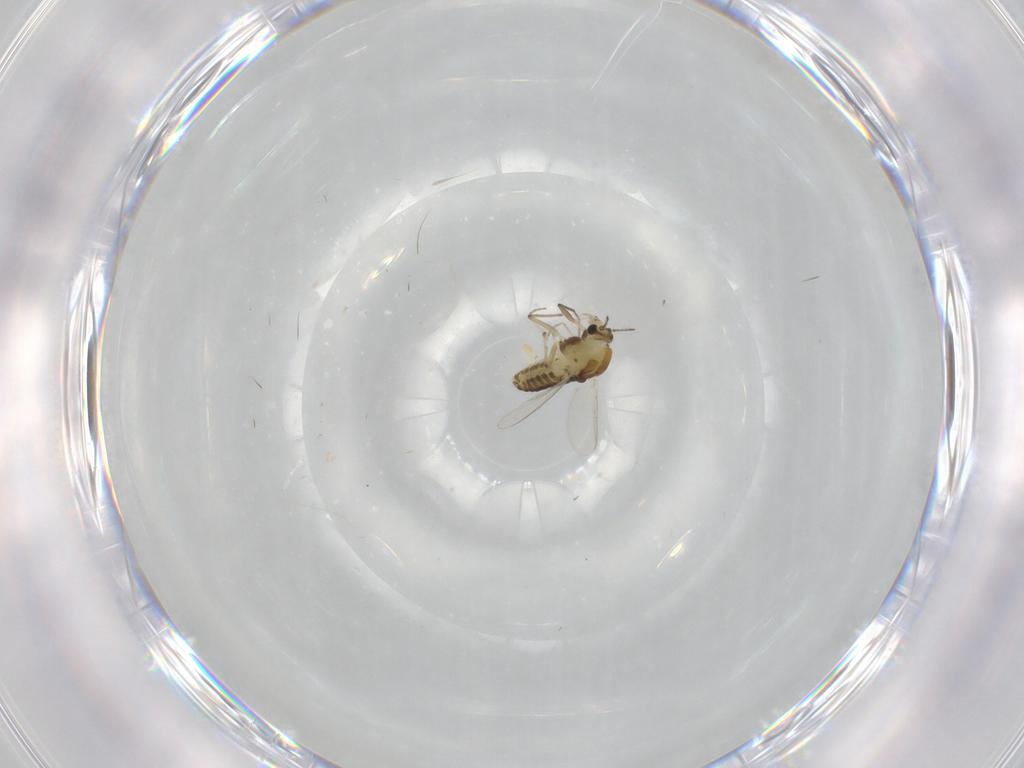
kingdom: Animalia
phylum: Arthropoda
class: Insecta
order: Diptera
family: Chironomidae
